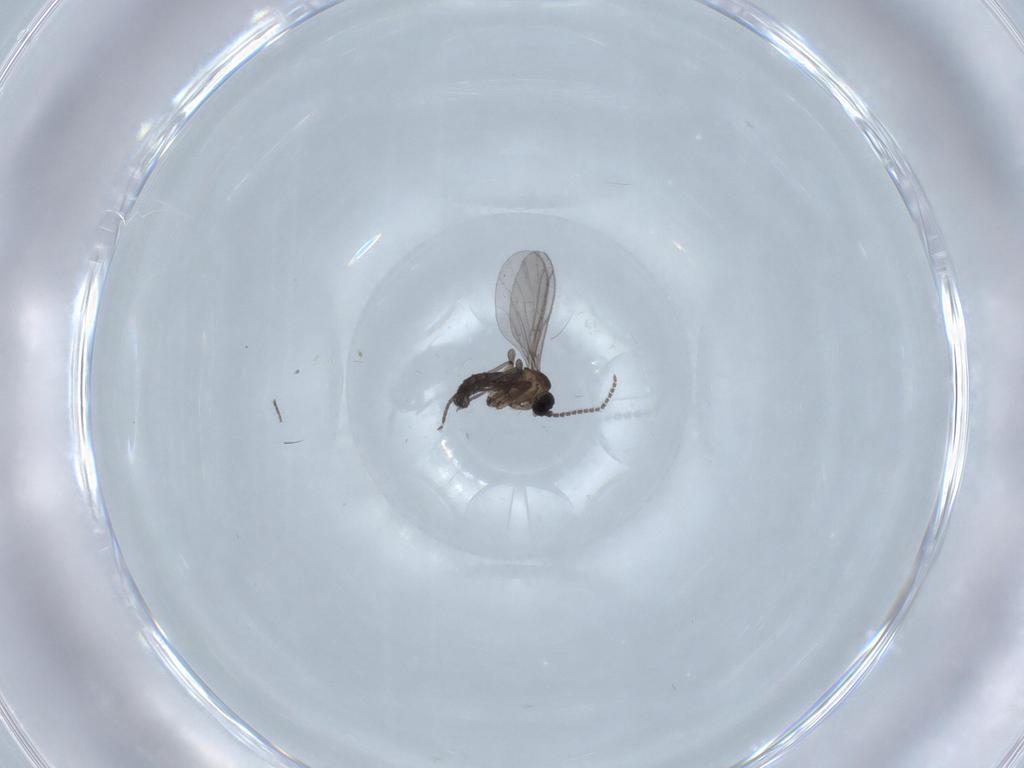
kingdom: Animalia
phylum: Arthropoda
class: Insecta
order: Diptera
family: Phoridae
